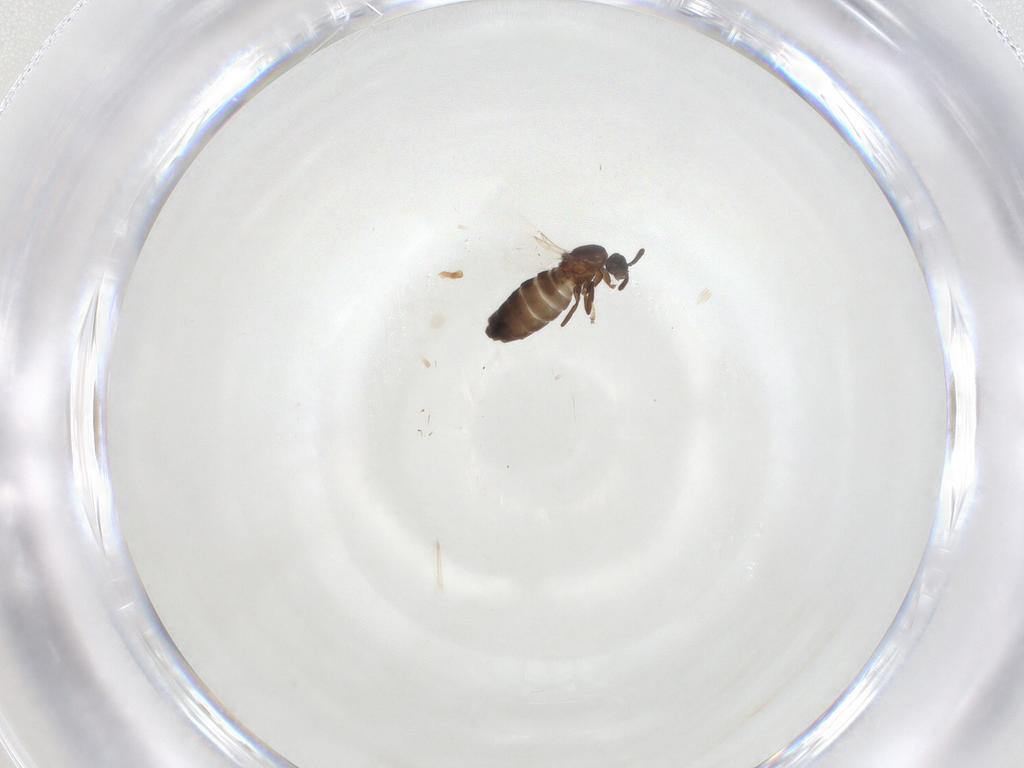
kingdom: Animalia
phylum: Arthropoda
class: Insecta
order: Diptera
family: Scatopsidae
